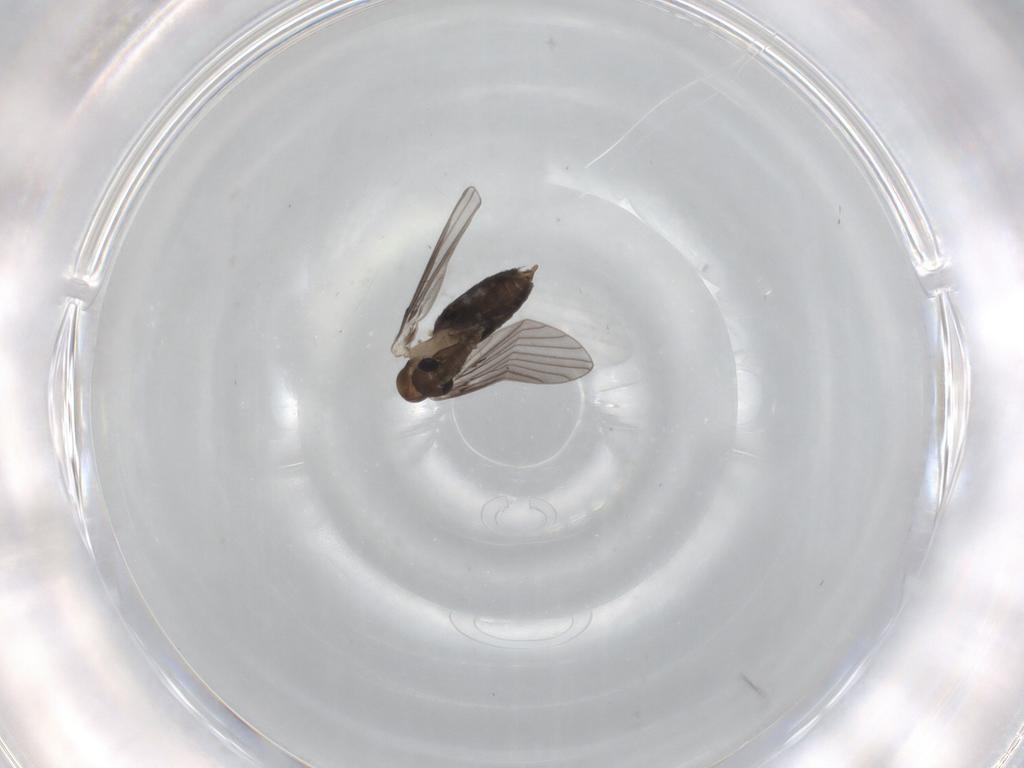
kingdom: Animalia
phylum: Arthropoda
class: Insecta
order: Diptera
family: Psychodidae
